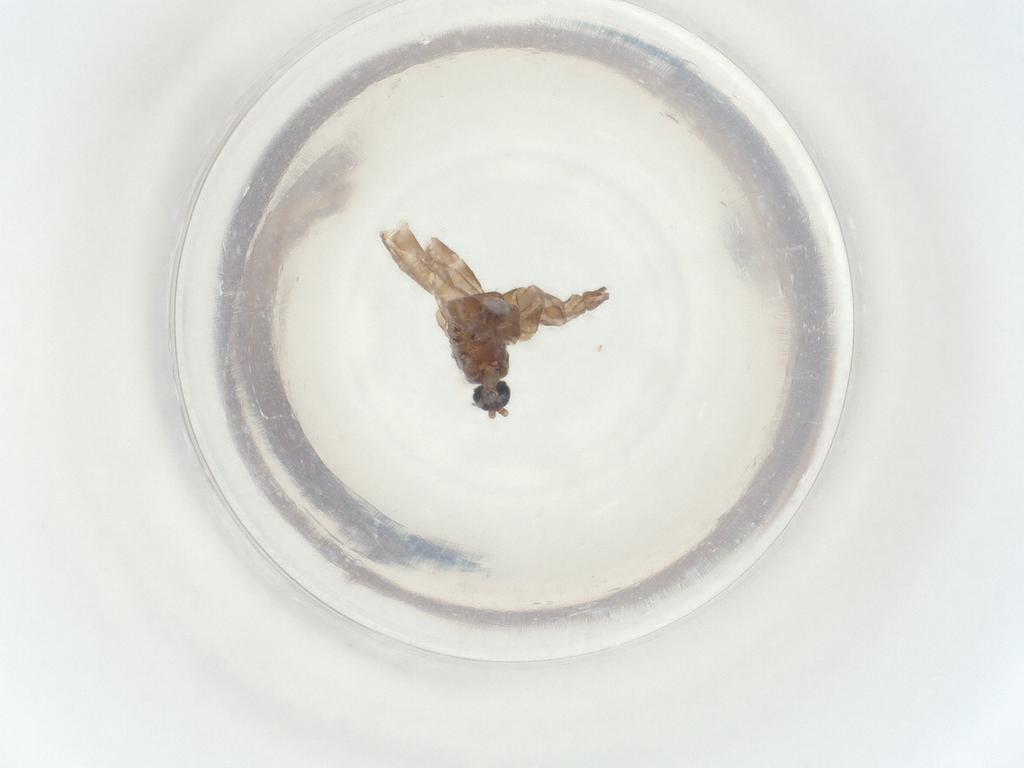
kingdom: Animalia
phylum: Arthropoda
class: Insecta
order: Diptera
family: Sciaridae
